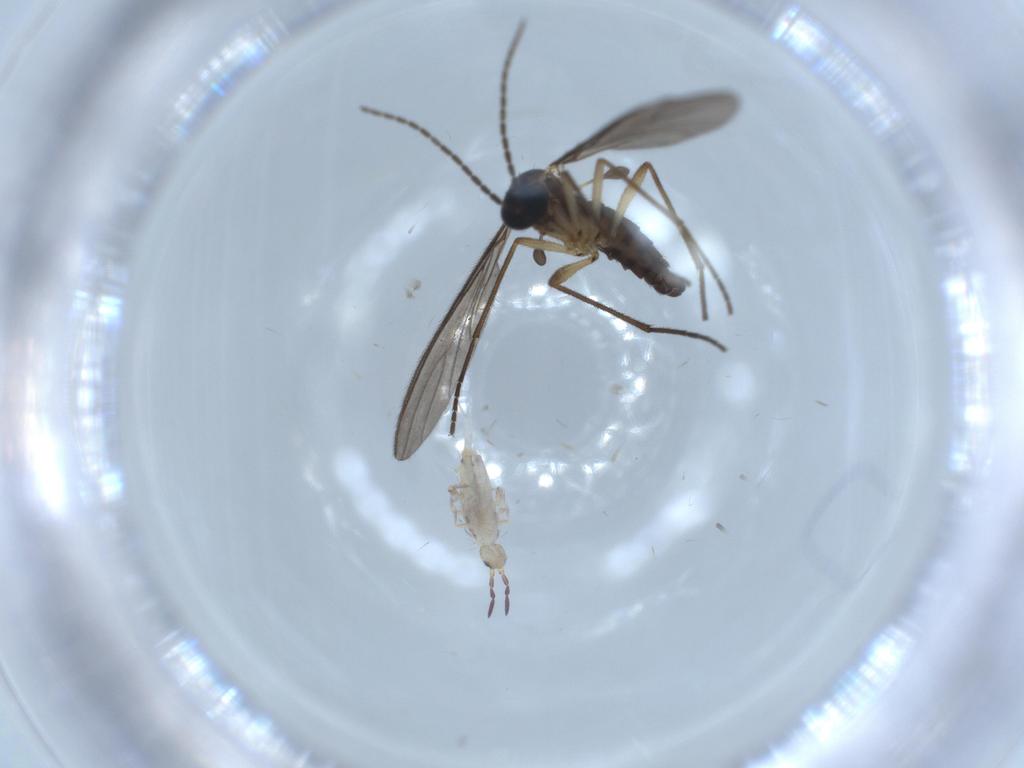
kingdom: Animalia
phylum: Arthropoda
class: Collembola
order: Entomobryomorpha
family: Entomobryidae
